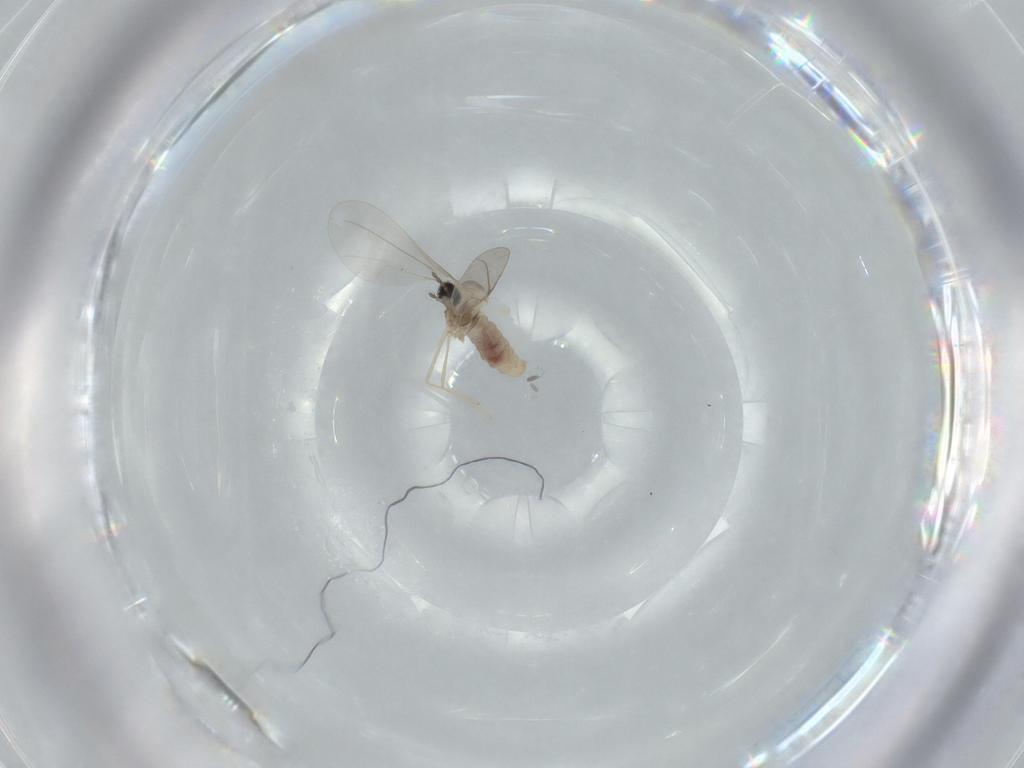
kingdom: Animalia
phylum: Arthropoda
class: Insecta
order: Diptera
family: Cecidomyiidae
